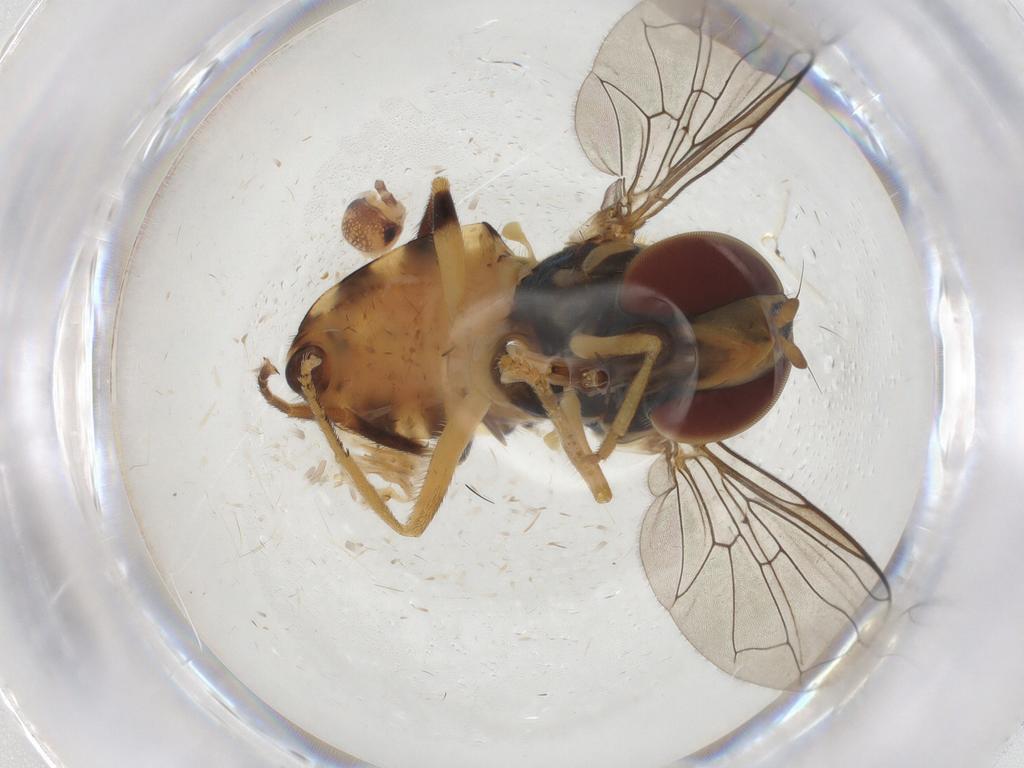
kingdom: Animalia
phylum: Arthropoda
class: Insecta
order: Diptera
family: Syrphidae
